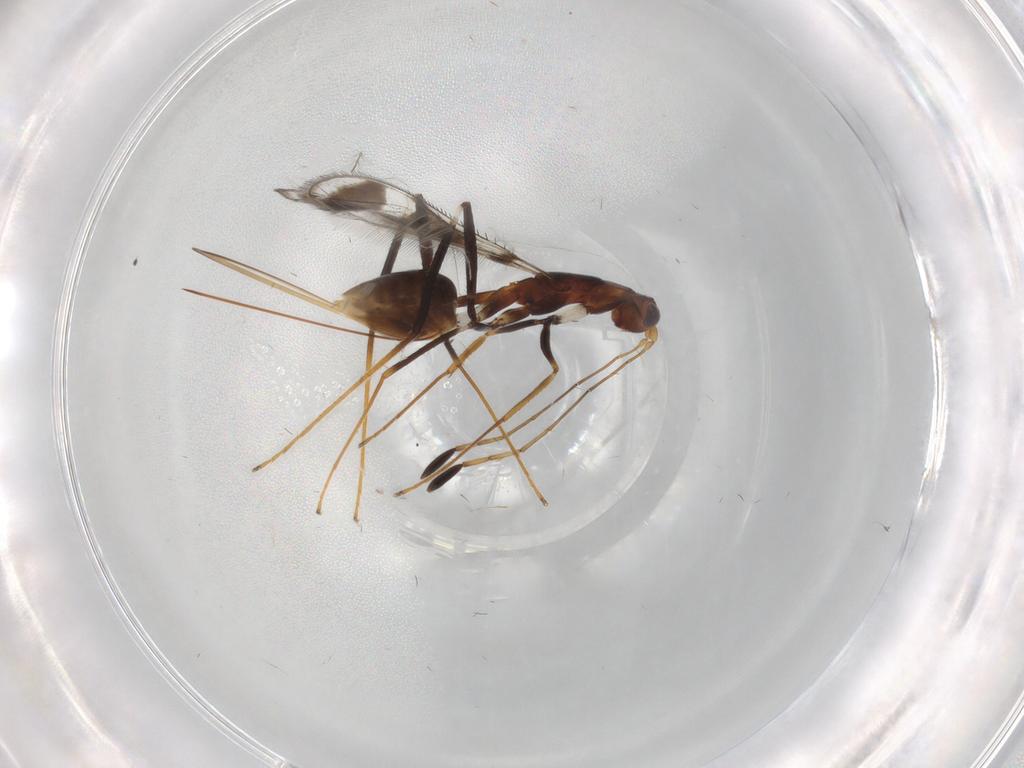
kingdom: Animalia
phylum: Arthropoda
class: Insecta
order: Hymenoptera
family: Mymaridae
